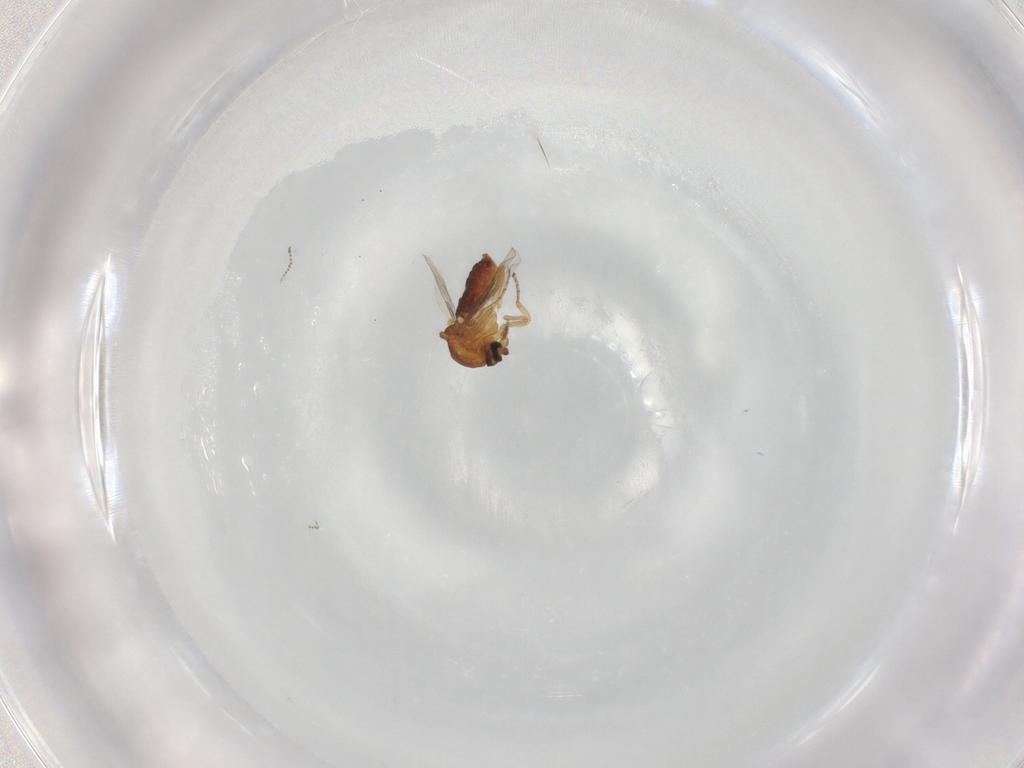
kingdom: Animalia
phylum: Arthropoda
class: Insecta
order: Diptera
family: Ceratopogonidae
